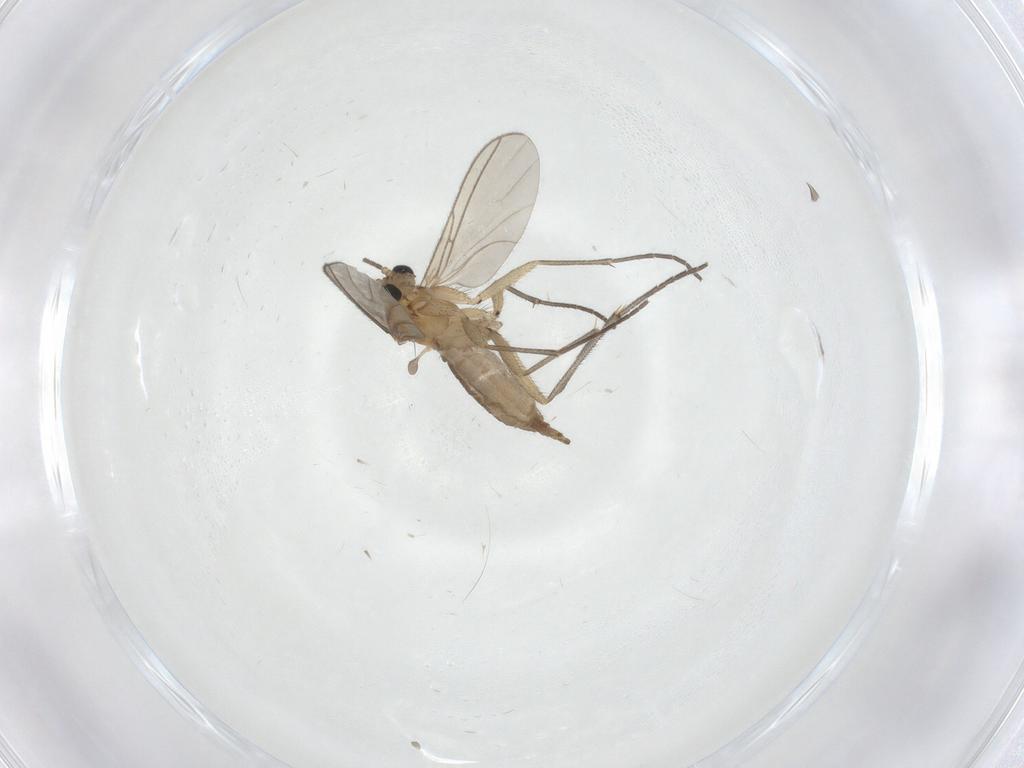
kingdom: Animalia
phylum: Arthropoda
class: Insecta
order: Diptera
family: Sciaridae
